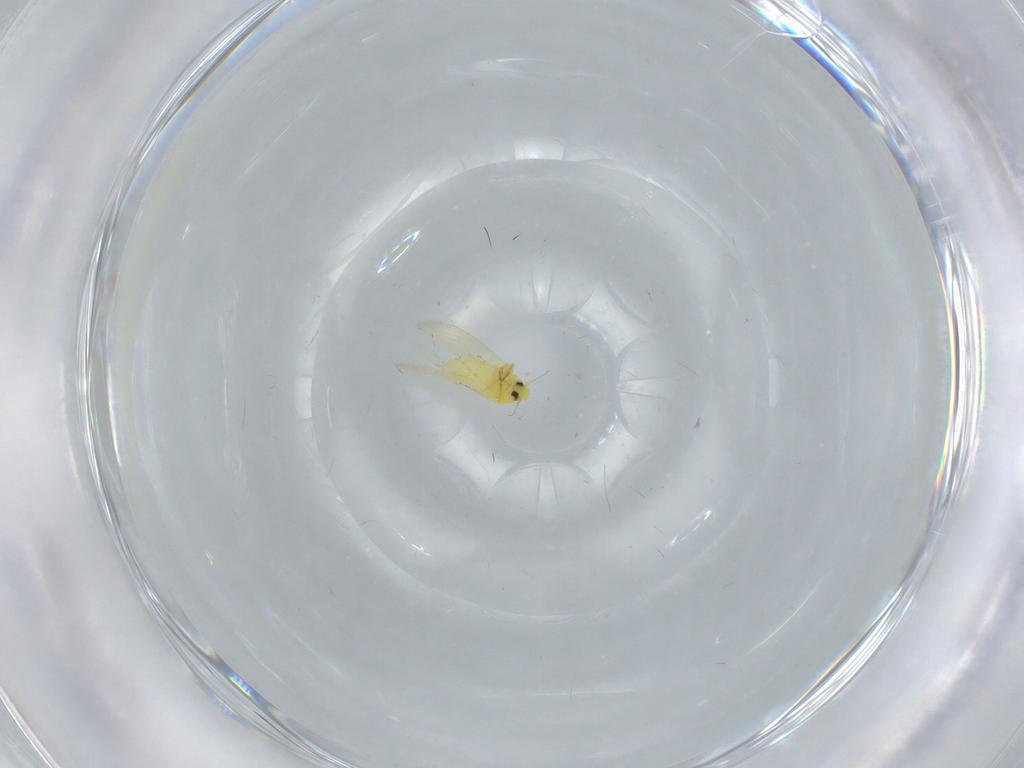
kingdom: Animalia
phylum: Arthropoda
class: Insecta
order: Hemiptera
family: Aleyrodidae
